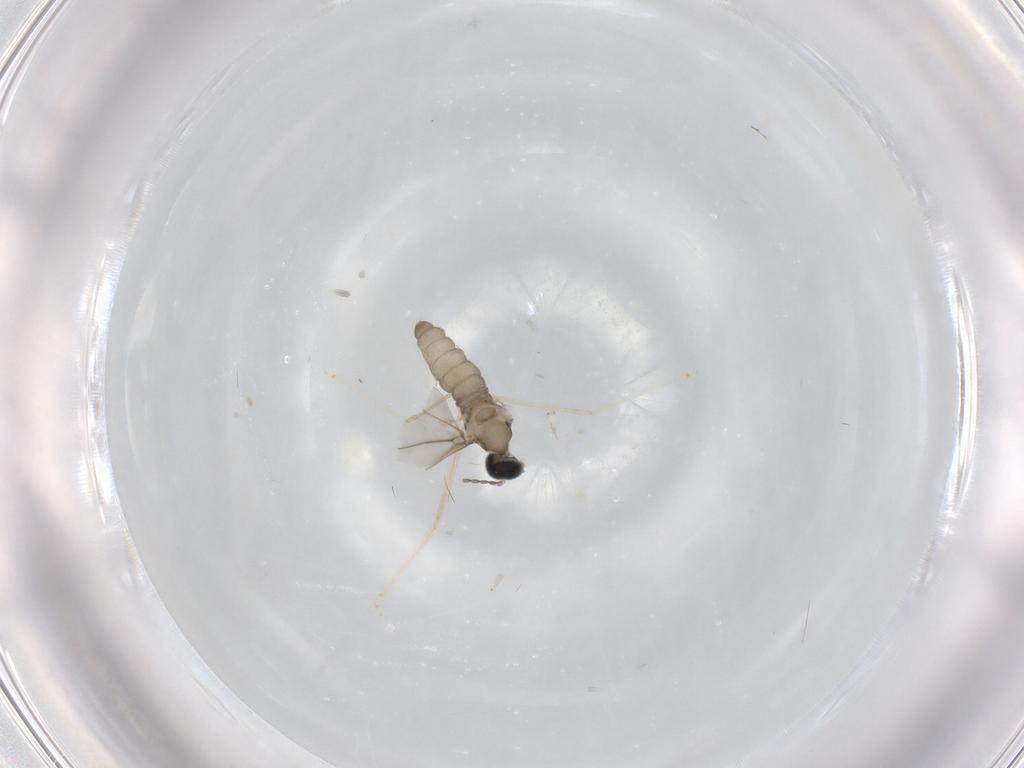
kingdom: Animalia
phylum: Arthropoda
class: Insecta
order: Diptera
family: Cecidomyiidae
